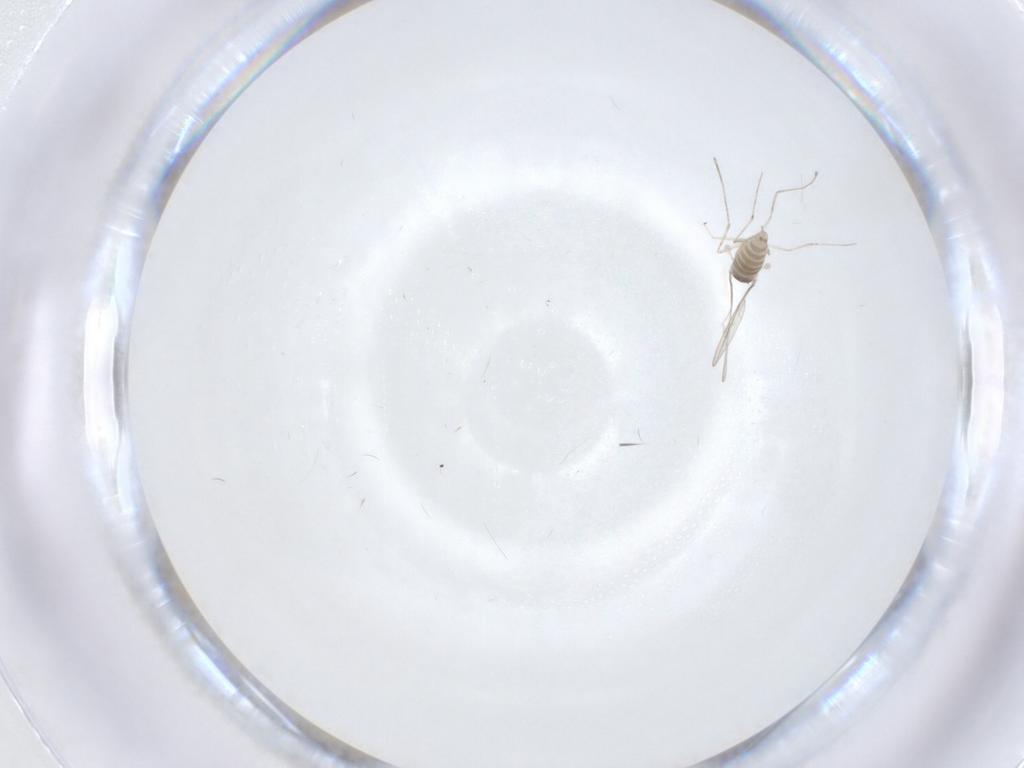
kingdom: Animalia
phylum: Arthropoda
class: Insecta
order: Diptera
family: Cecidomyiidae
